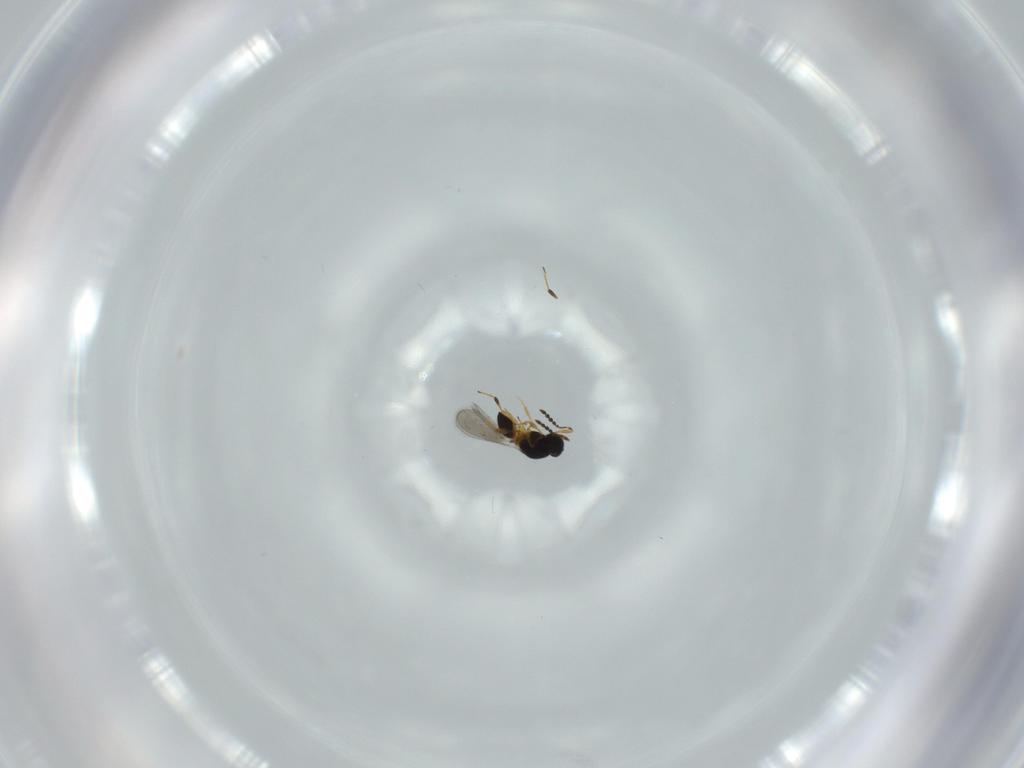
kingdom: Animalia
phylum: Arthropoda
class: Insecta
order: Hymenoptera
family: Platygastridae
